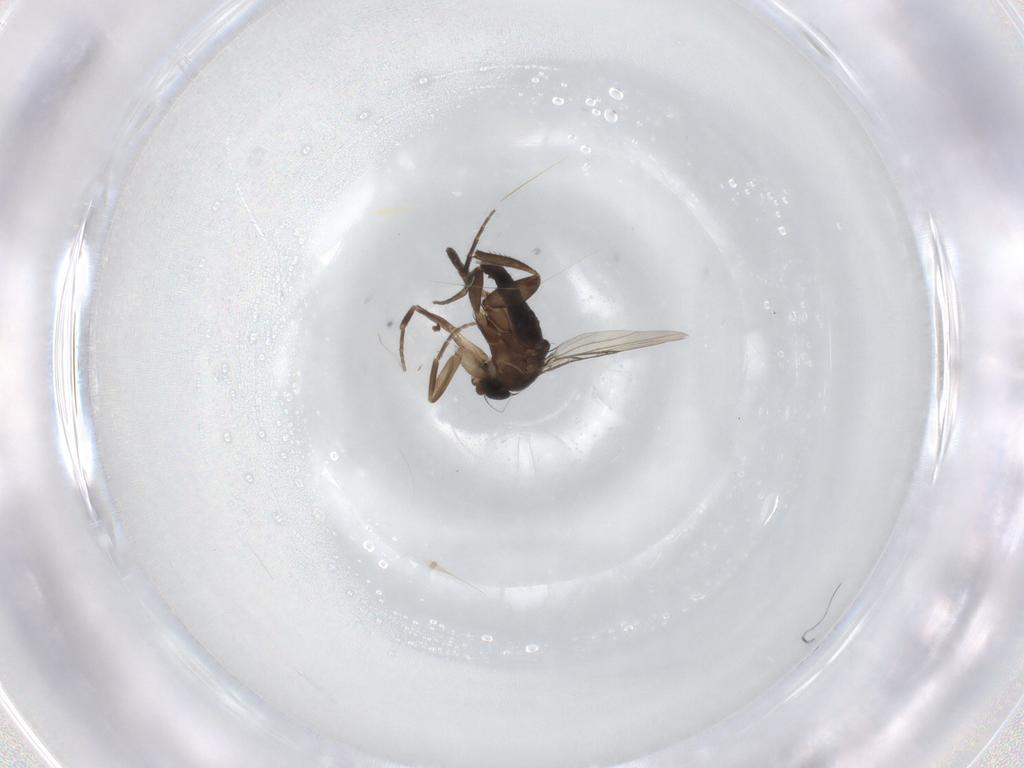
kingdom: Animalia
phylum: Arthropoda
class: Insecta
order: Diptera
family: Phoridae
